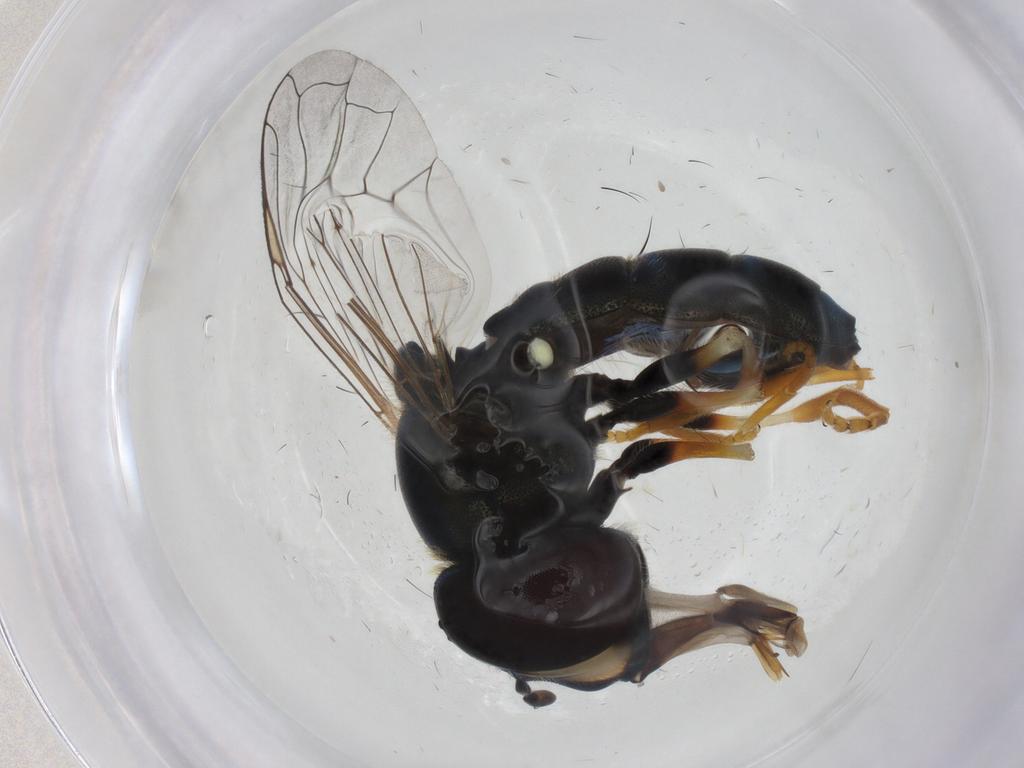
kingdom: Animalia
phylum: Arthropoda
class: Insecta
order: Diptera
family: Syrphidae
